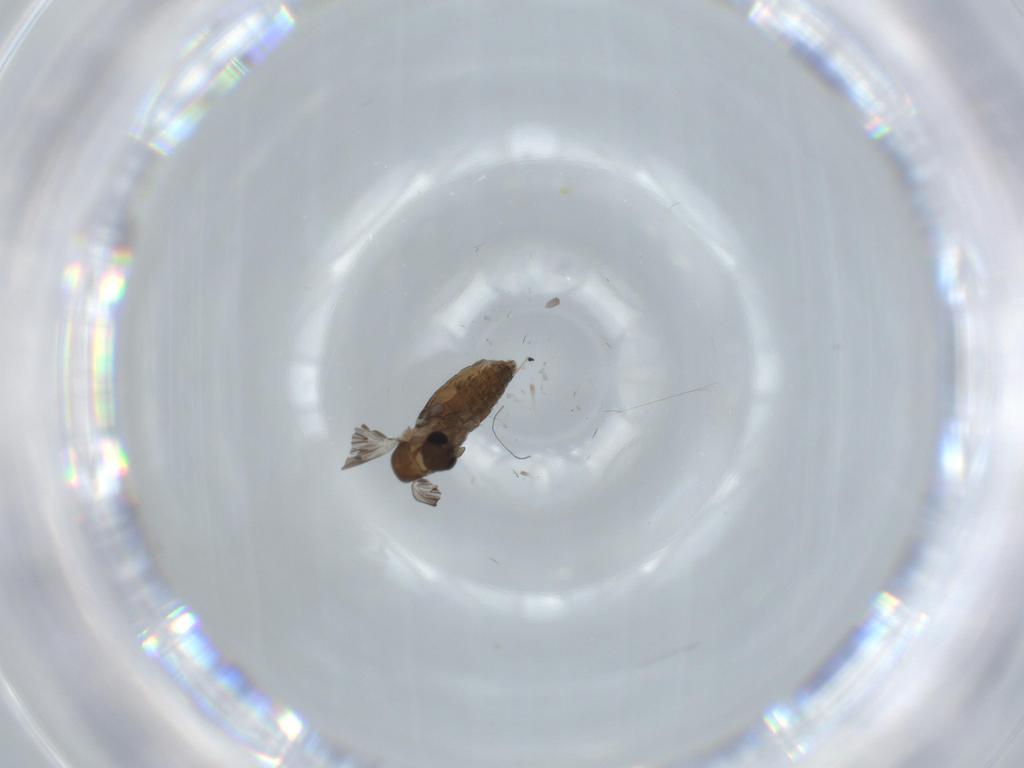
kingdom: Animalia
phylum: Arthropoda
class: Insecta
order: Diptera
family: Psychodidae
